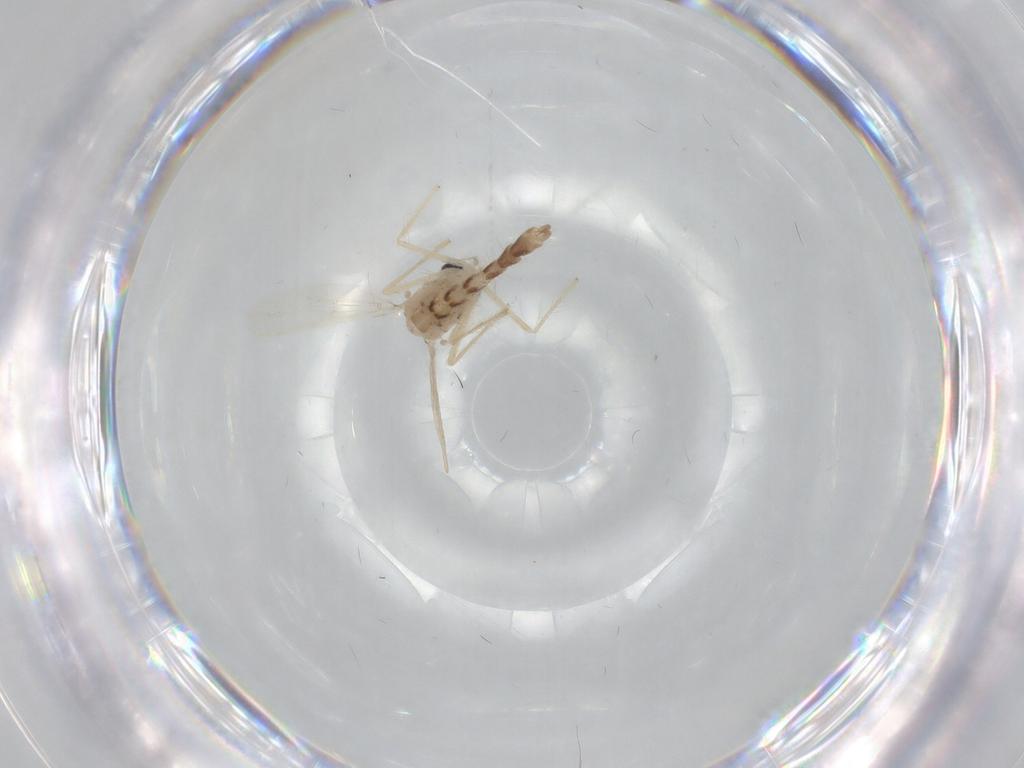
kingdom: Animalia
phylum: Arthropoda
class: Insecta
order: Diptera
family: Chironomidae
